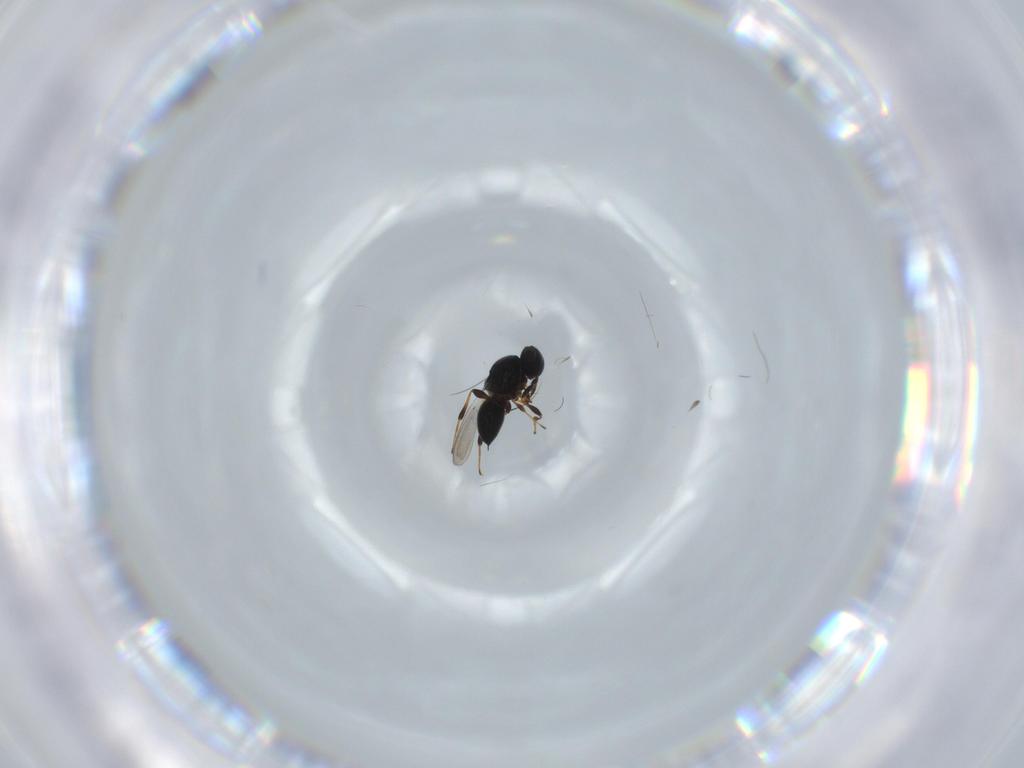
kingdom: Animalia
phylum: Arthropoda
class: Insecta
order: Hymenoptera
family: Platygastridae
